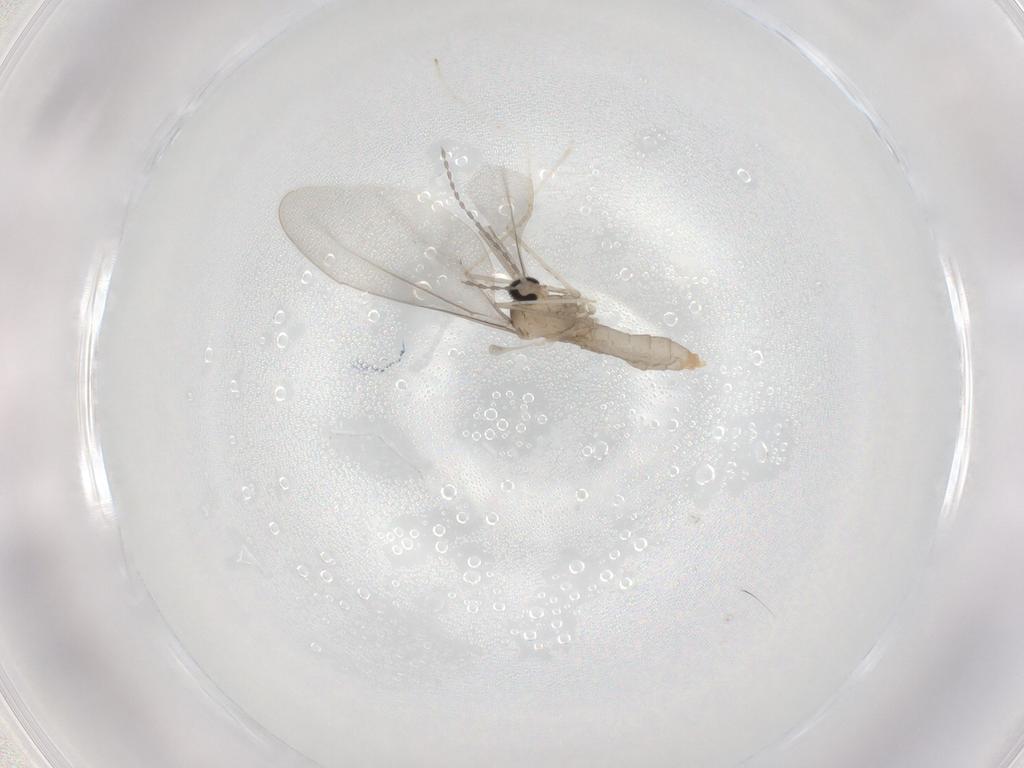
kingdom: Animalia
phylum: Arthropoda
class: Insecta
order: Diptera
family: Cecidomyiidae
